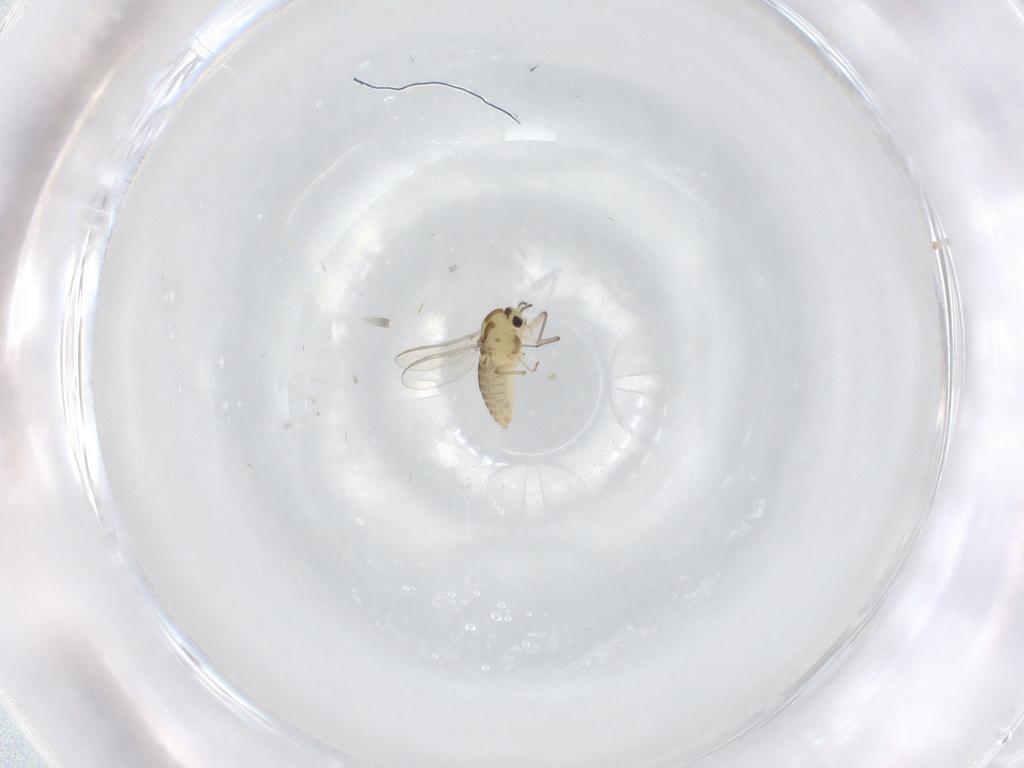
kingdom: Animalia
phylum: Arthropoda
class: Insecta
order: Diptera
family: Chironomidae
